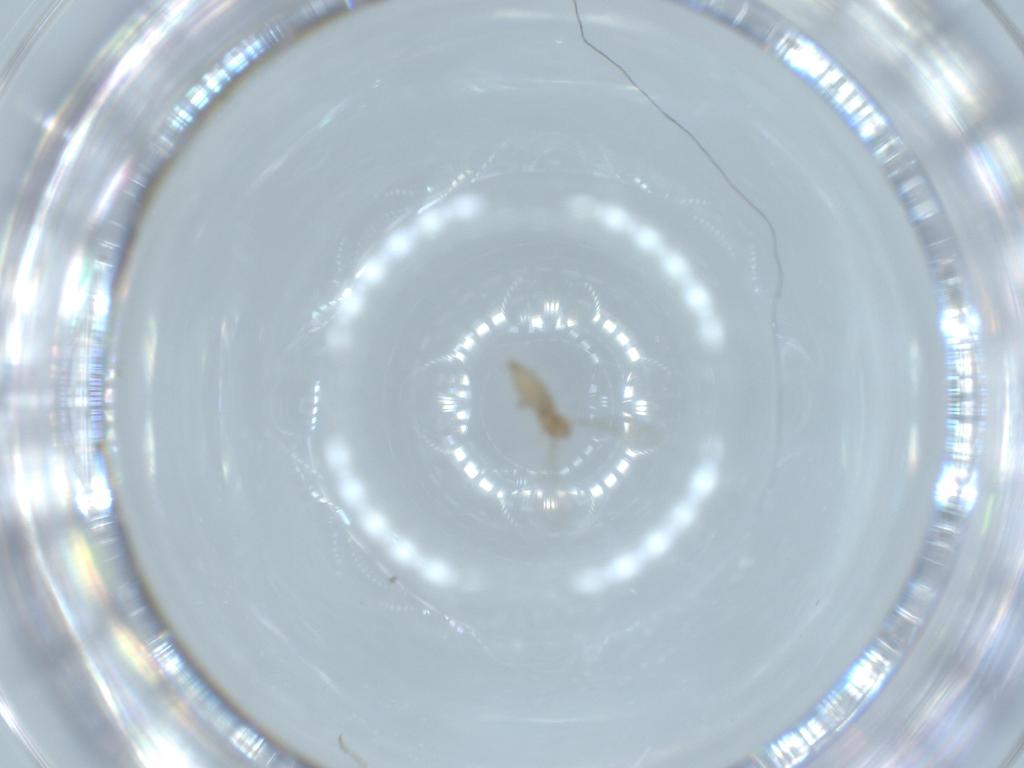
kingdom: Animalia
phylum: Arthropoda
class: Insecta
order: Diptera
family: Cecidomyiidae
